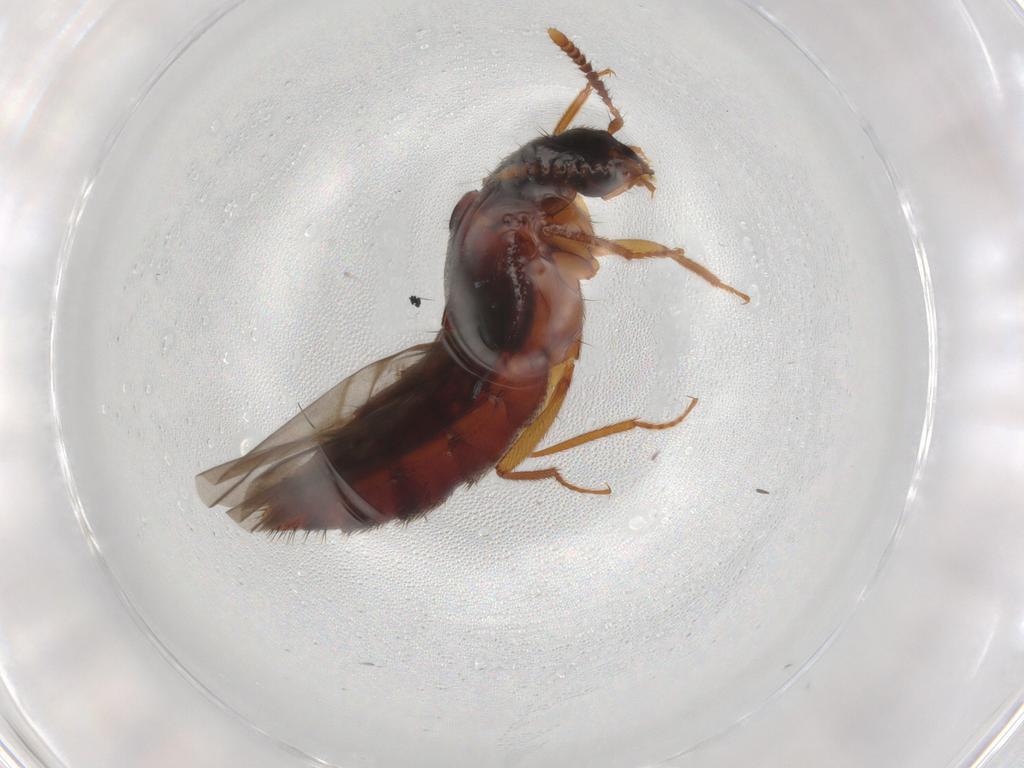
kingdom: Animalia
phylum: Arthropoda
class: Insecta
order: Coleoptera
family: Staphylinidae
